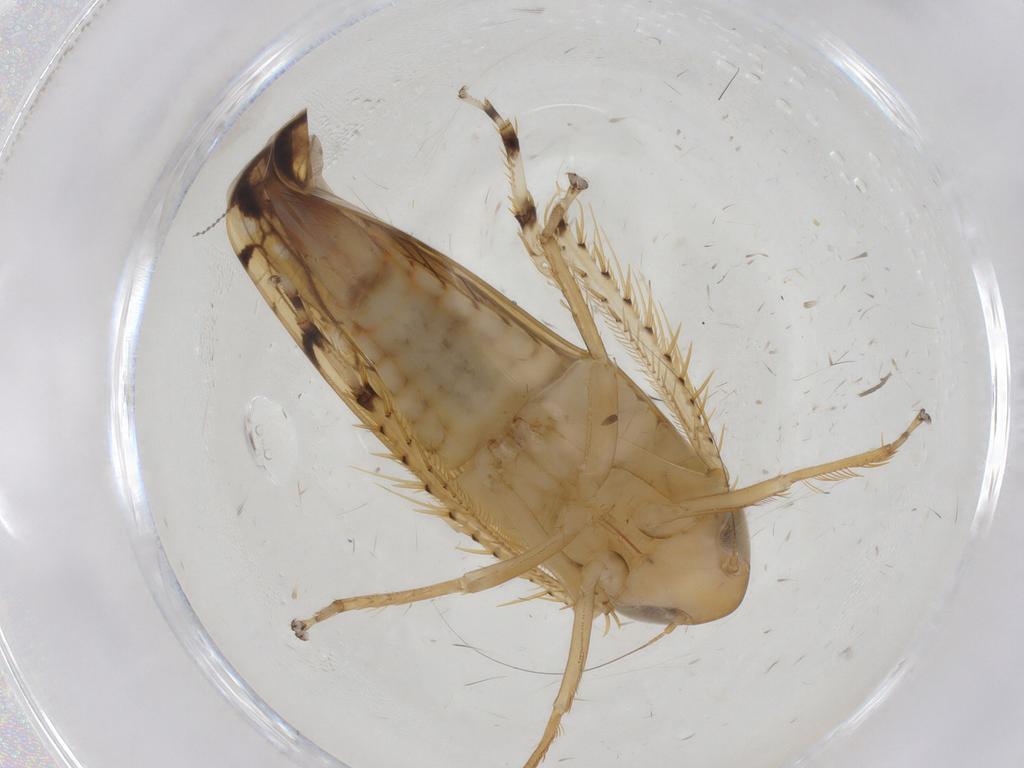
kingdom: Animalia
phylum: Arthropoda
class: Insecta
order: Hemiptera
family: Cercopidae
